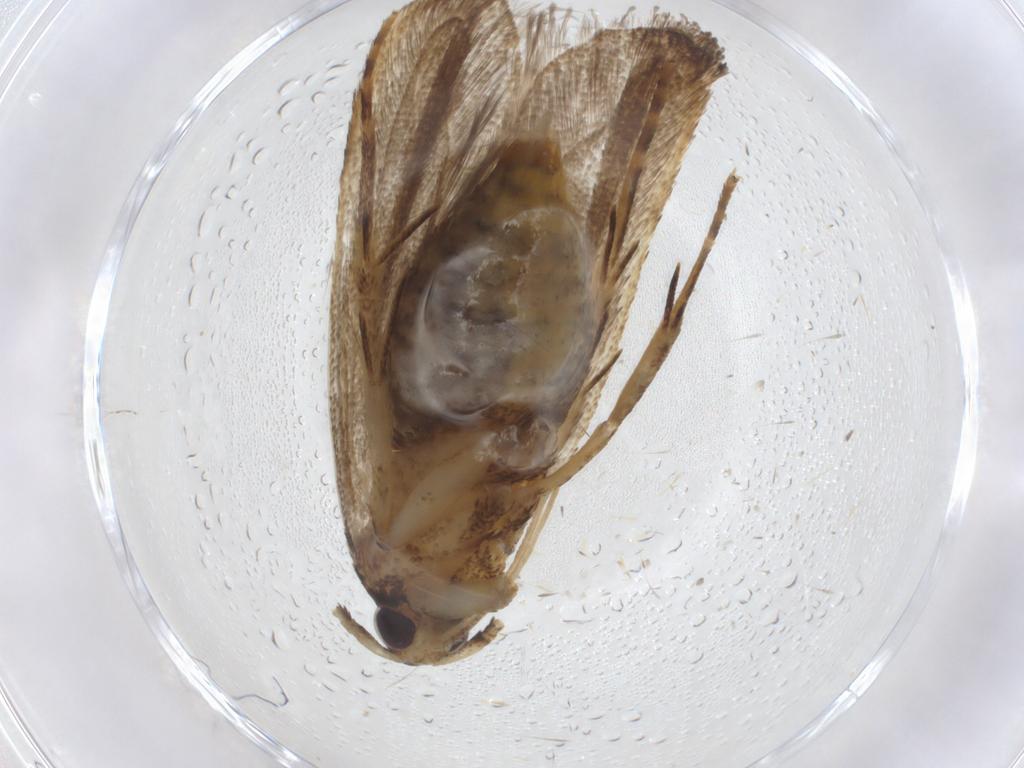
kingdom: Animalia
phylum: Arthropoda
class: Insecta
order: Lepidoptera
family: Lecithoceridae
